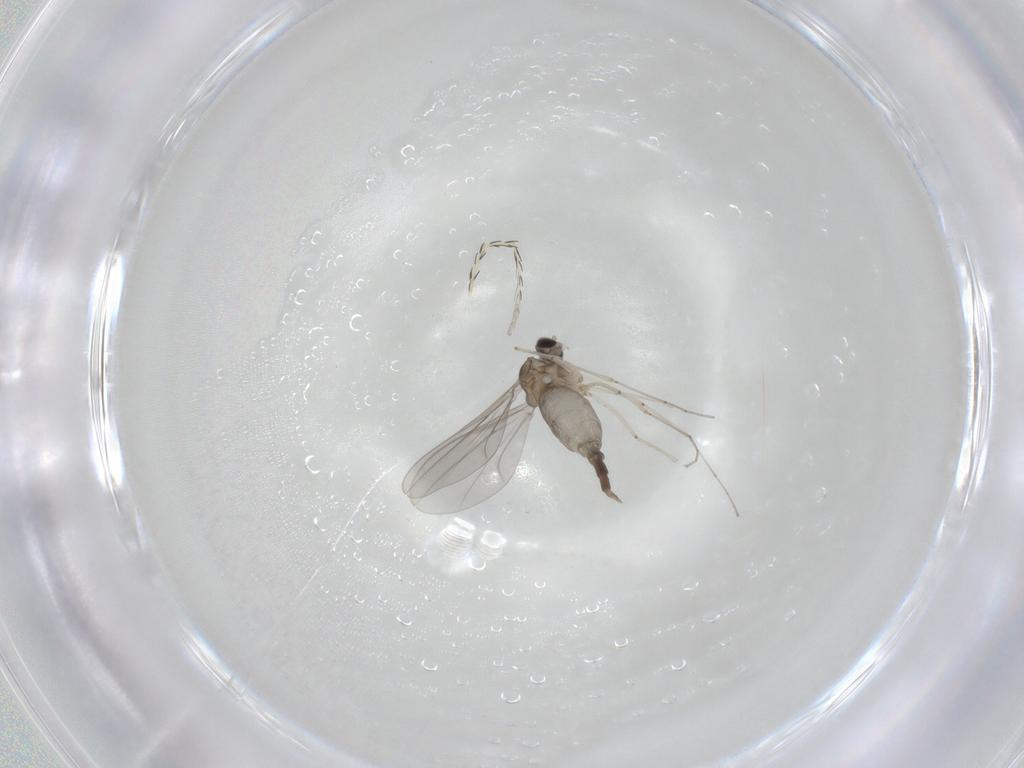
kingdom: Animalia
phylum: Arthropoda
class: Insecta
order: Diptera
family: Cecidomyiidae
